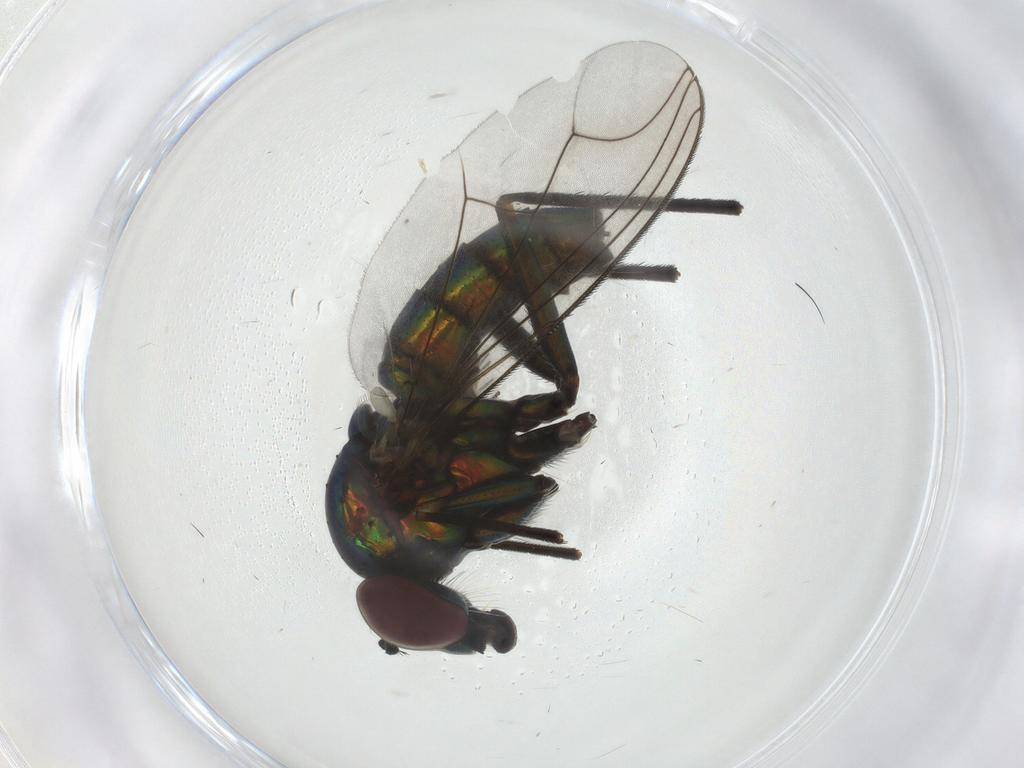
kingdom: Animalia
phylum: Arthropoda
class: Insecta
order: Diptera
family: Dolichopodidae
